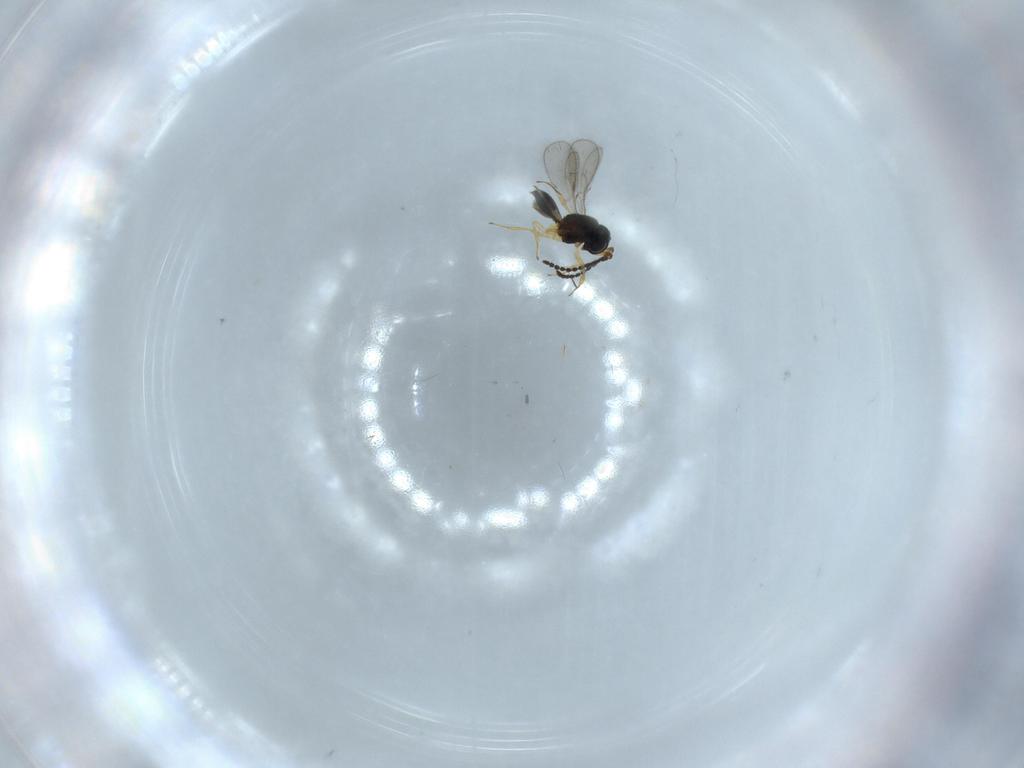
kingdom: Animalia
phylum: Arthropoda
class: Insecta
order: Hymenoptera
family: Scelionidae
